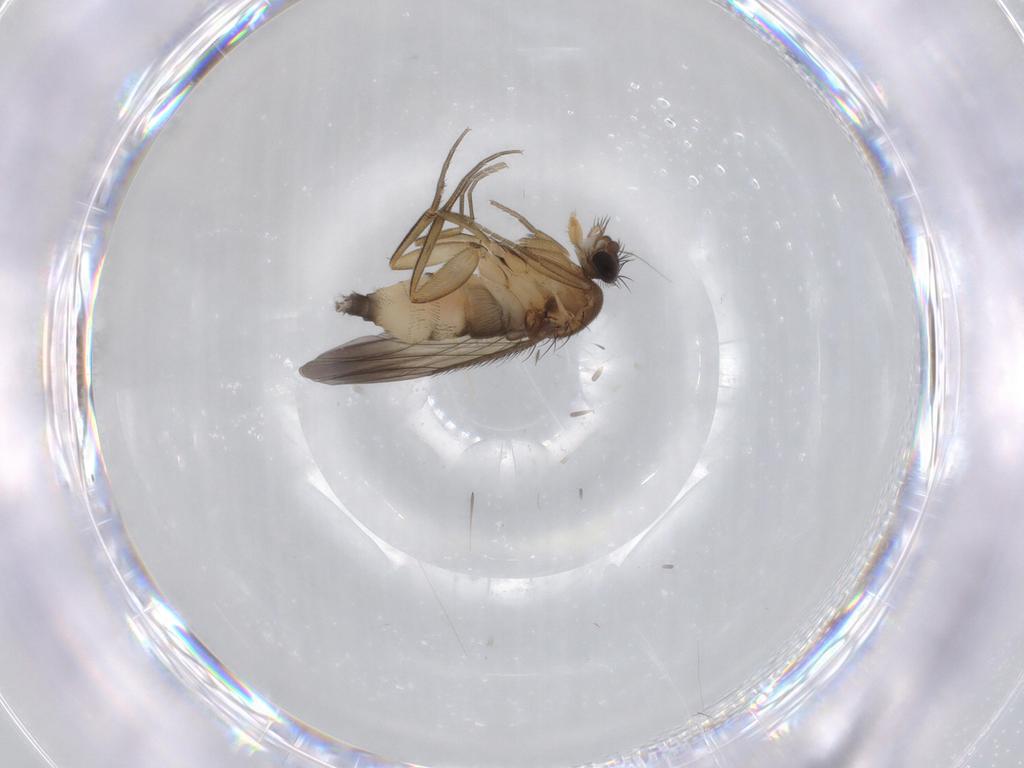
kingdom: Animalia
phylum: Arthropoda
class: Insecta
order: Diptera
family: Phoridae
